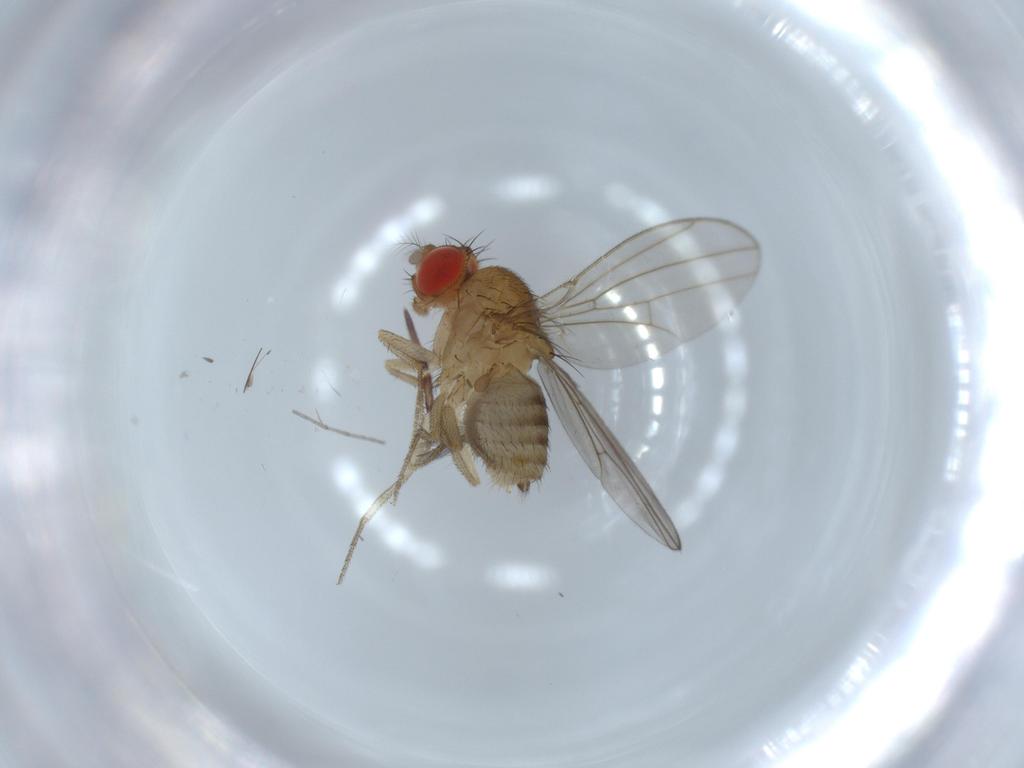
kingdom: Animalia
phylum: Arthropoda
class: Insecta
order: Diptera
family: Drosophilidae
